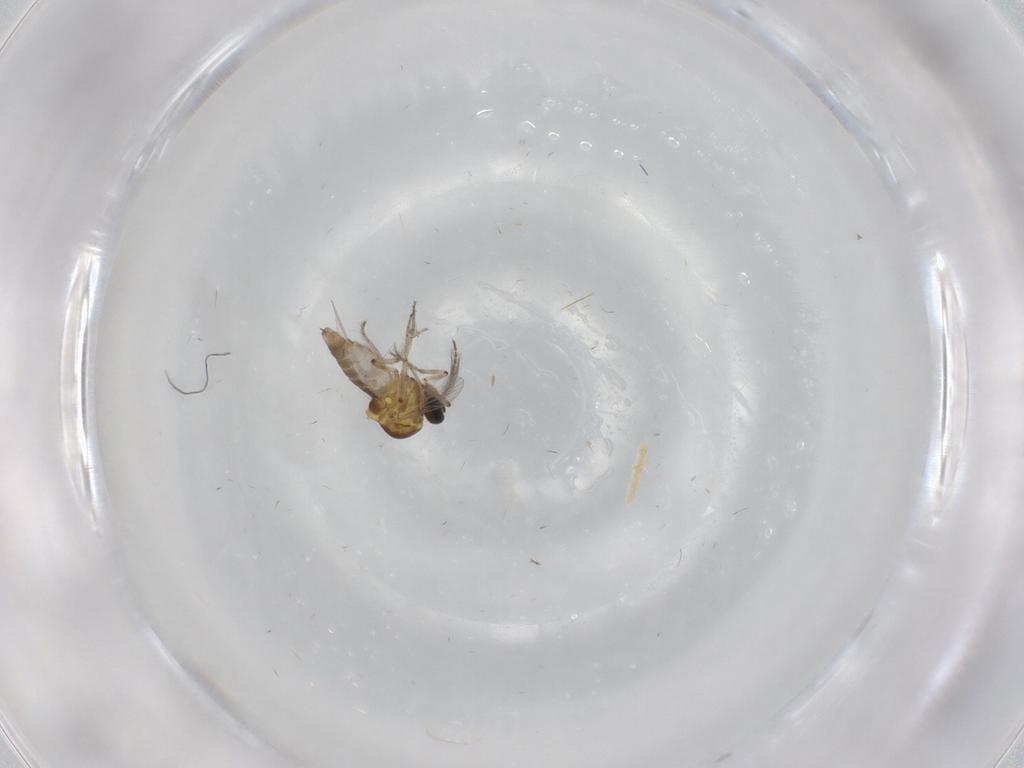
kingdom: Animalia
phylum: Arthropoda
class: Insecta
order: Diptera
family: Ceratopogonidae
